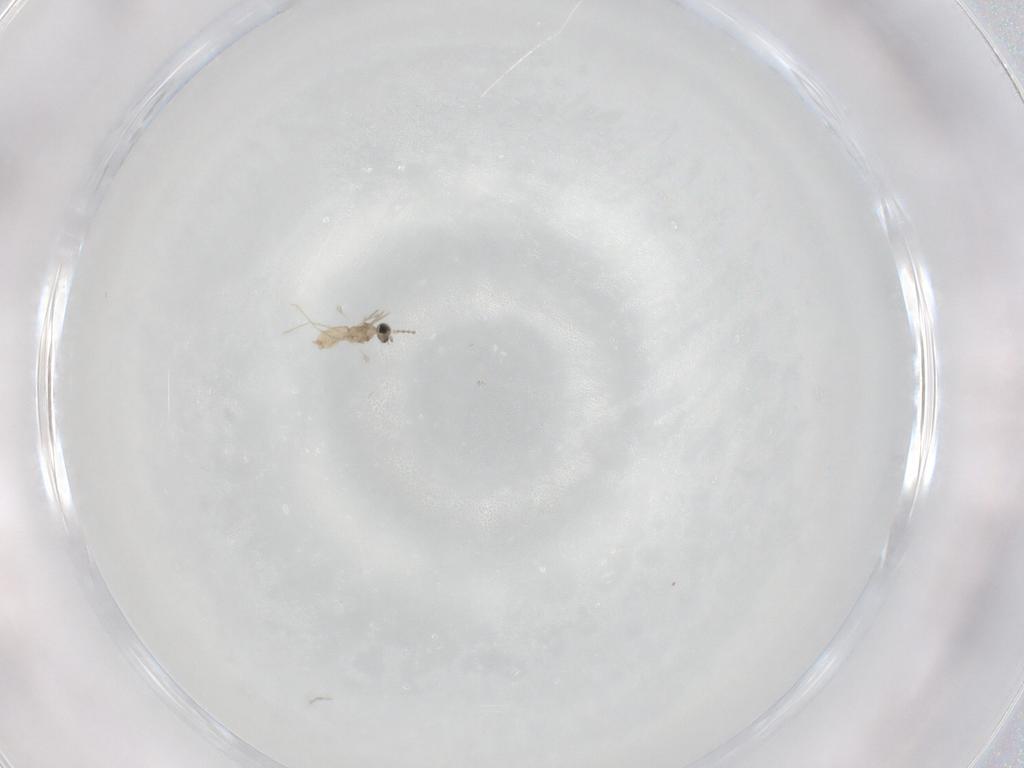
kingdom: Animalia
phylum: Arthropoda
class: Insecta
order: Diptera
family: Cecidomyiidae
